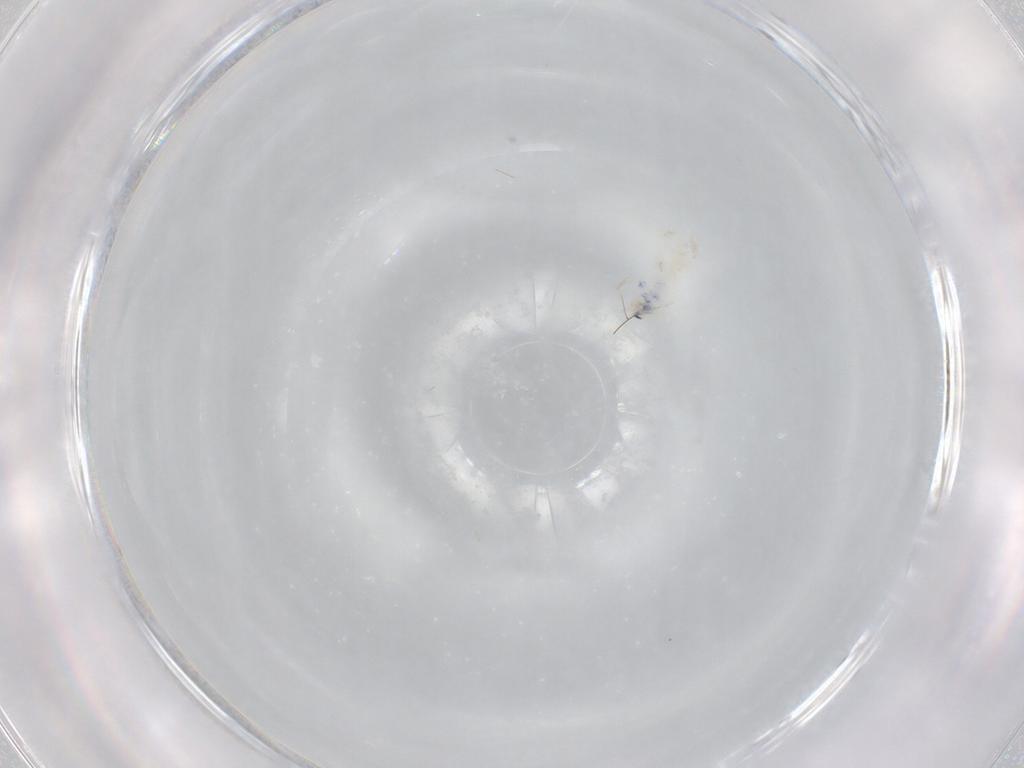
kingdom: Animalia
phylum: Arthropoda
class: Collembola
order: Entomobryomorpha
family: Entomobryidae
